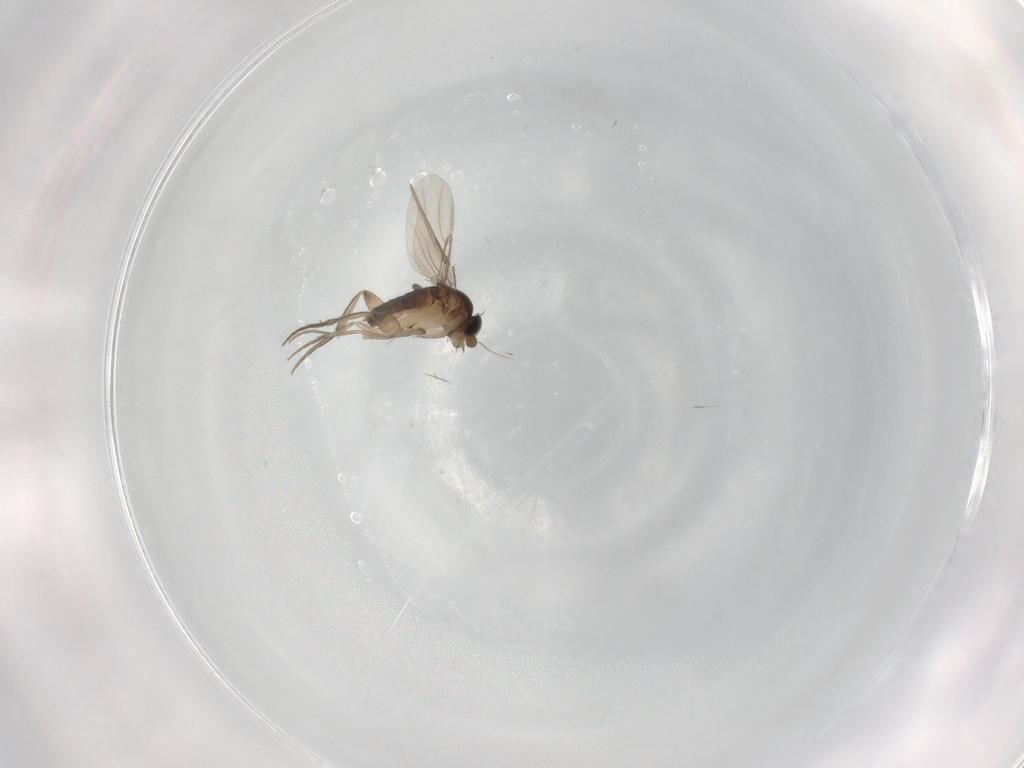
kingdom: Animalia
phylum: Arthropoda
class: Insecta
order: Diptera
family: Phoridae
